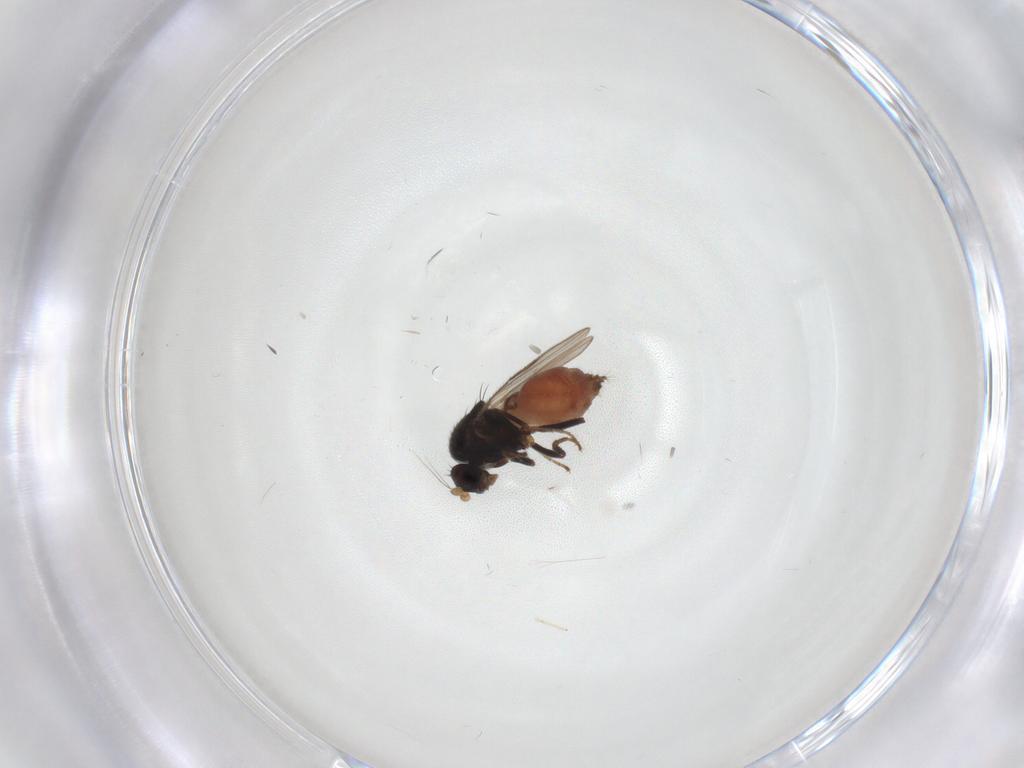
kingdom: Animalia
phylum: Arthropoda
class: Insecta
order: Diptera
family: Sphaeroceridae
